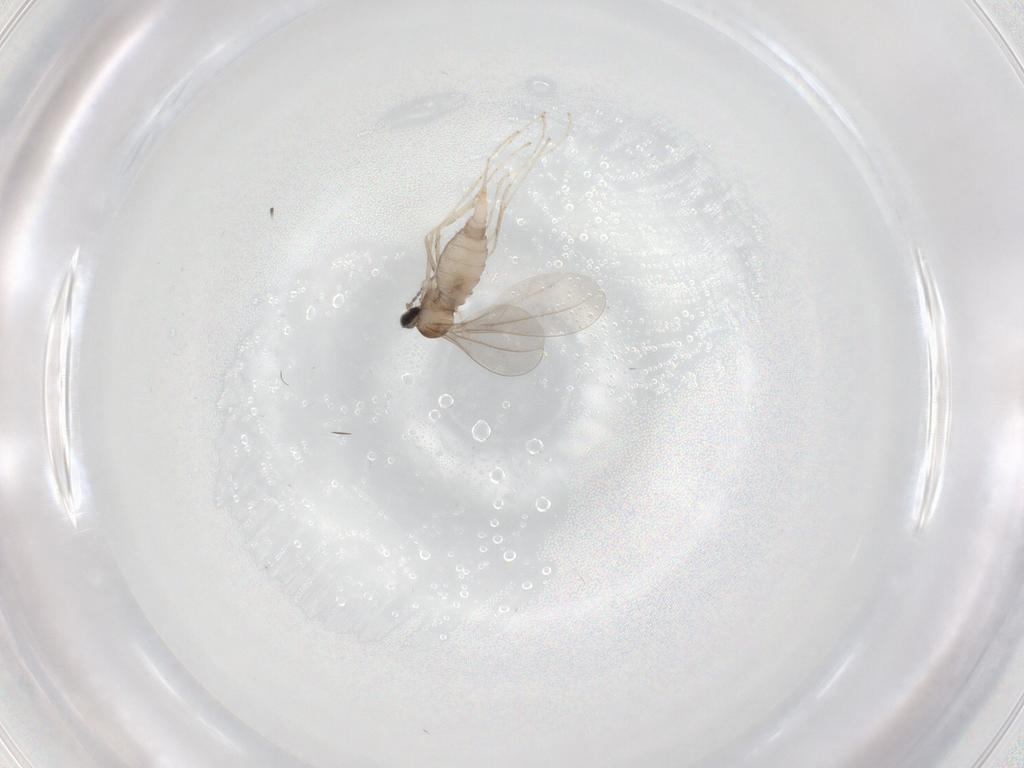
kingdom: Animalia
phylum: Arthropoda
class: Insecta
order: Diptera
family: Cecidomyiidae
